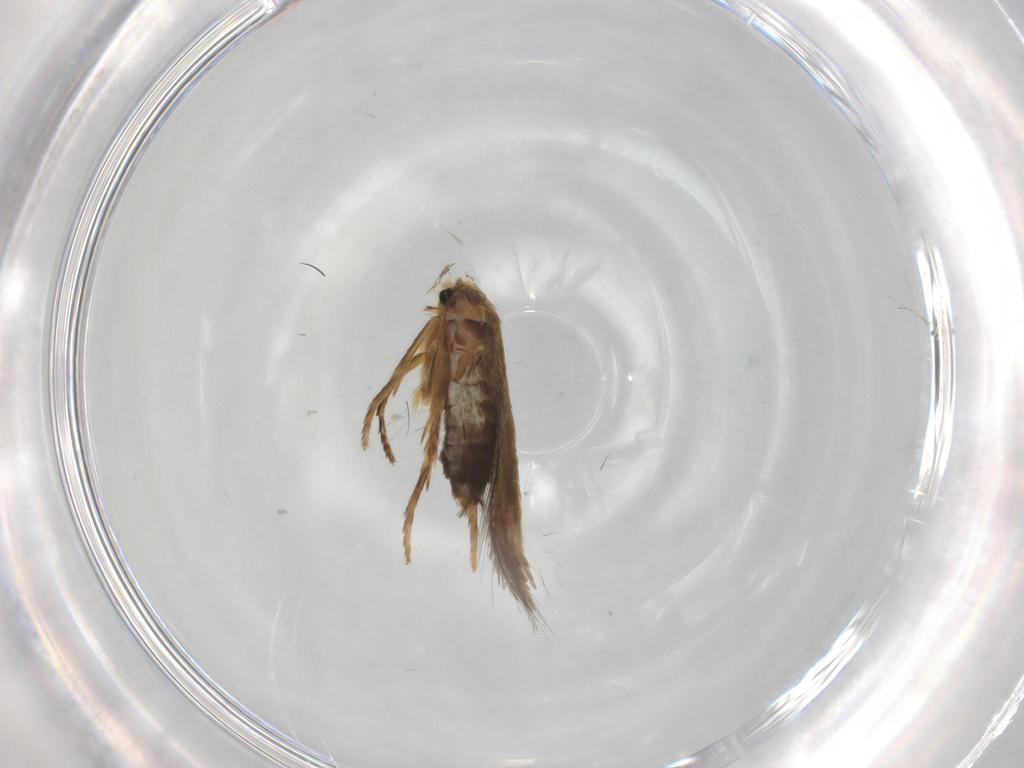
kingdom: Animalia
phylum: Arthropoda
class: Insecta
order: Lepidoptera
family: Nepticulidae
